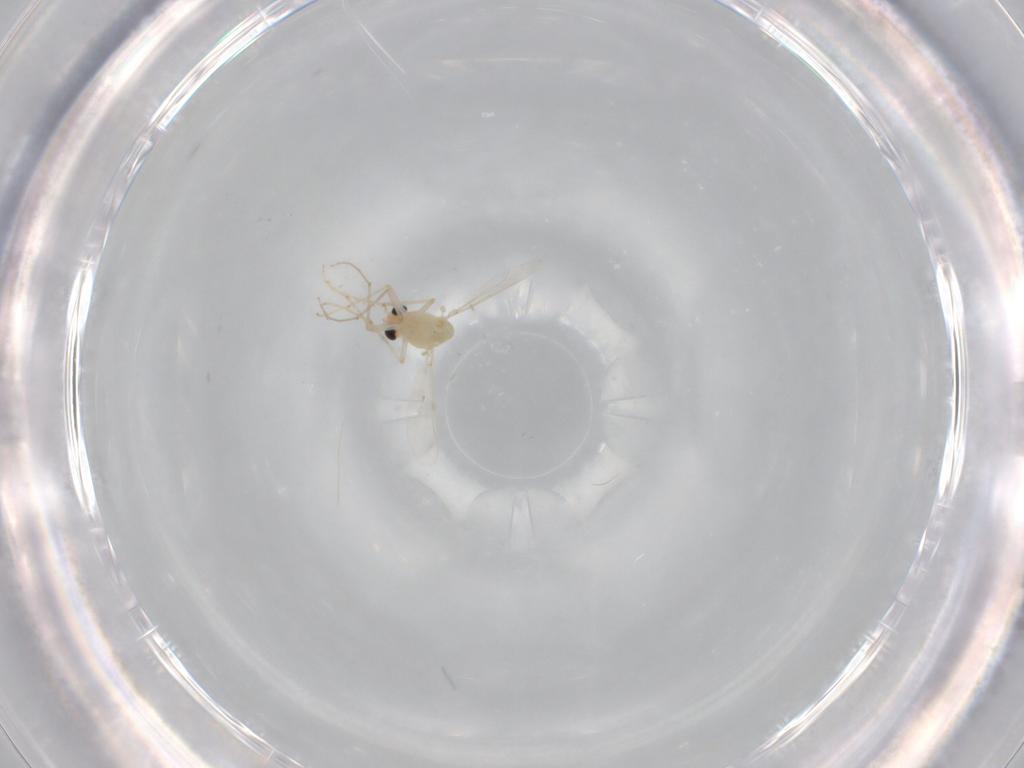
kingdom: Animalia
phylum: Arthropoda
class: Insecta
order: Diptera
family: Chironomidae
